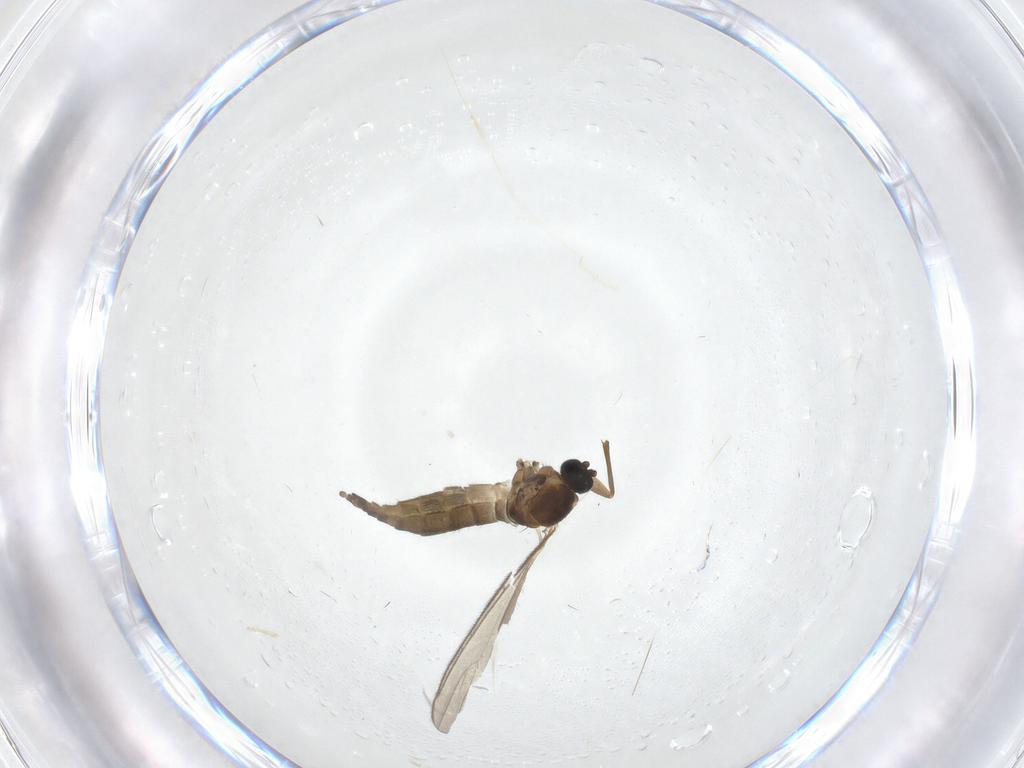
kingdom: Animalia
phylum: Arthropoda
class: Insecta
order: Diptera
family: Sciaridae
